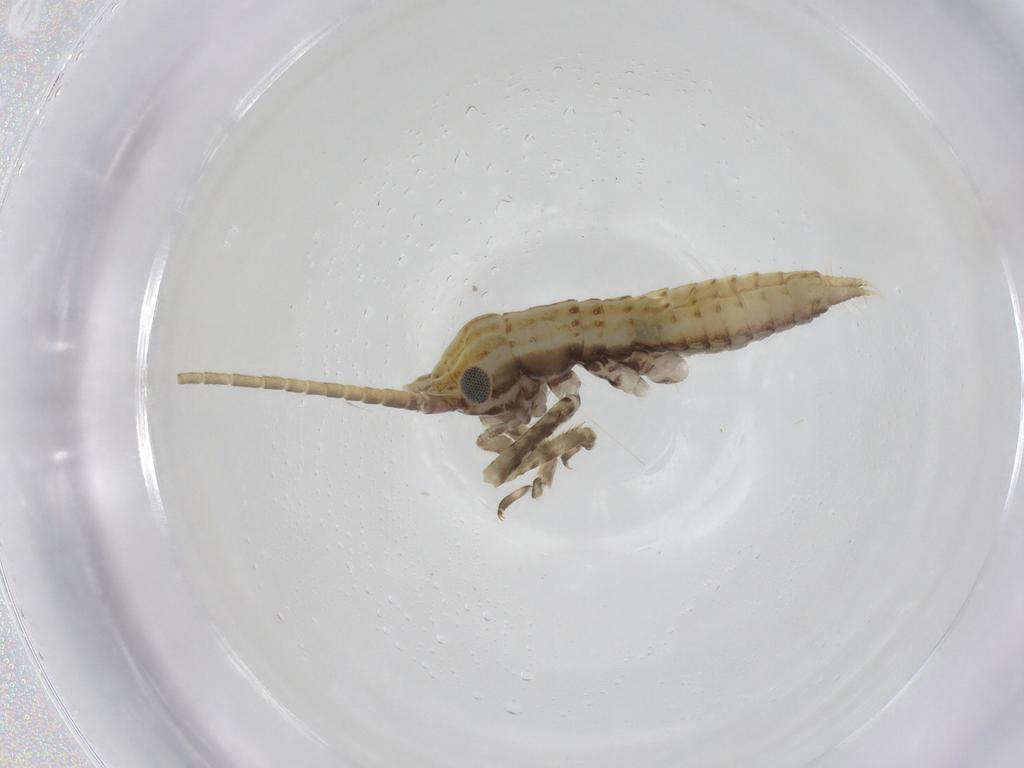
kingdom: Animalia
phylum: Arthropoda
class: Insecta
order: Orthoptera
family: Gryllidae
